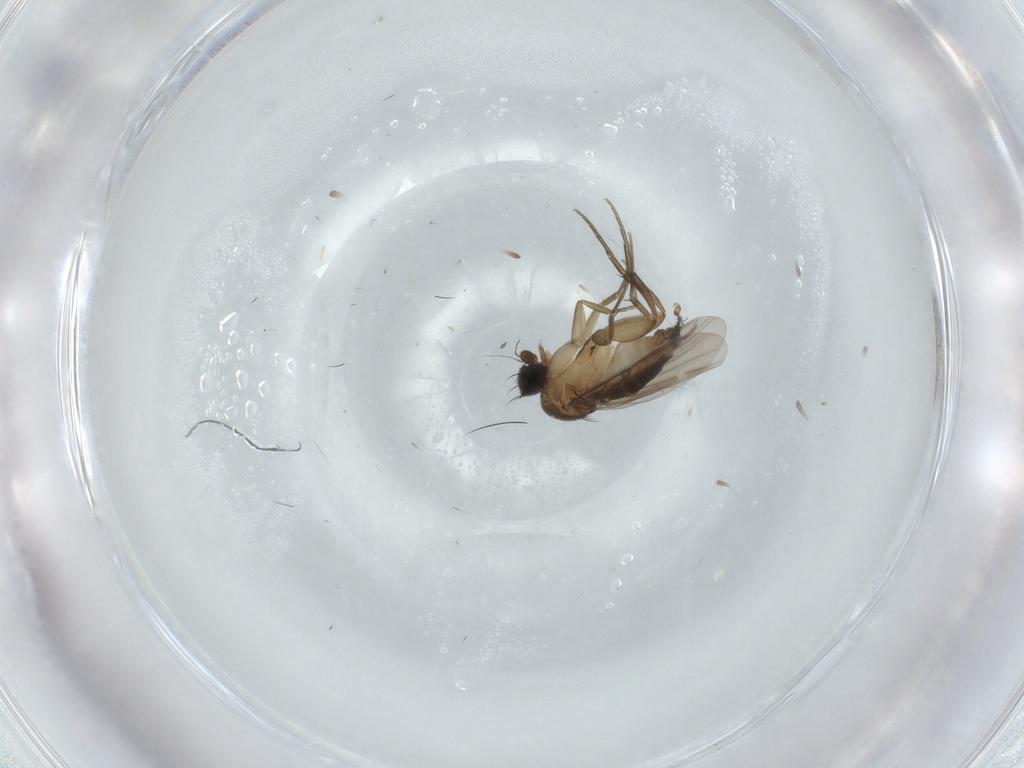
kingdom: Animalia
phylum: Arthropoda
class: Insecta
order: Diptera
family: Phoridae
